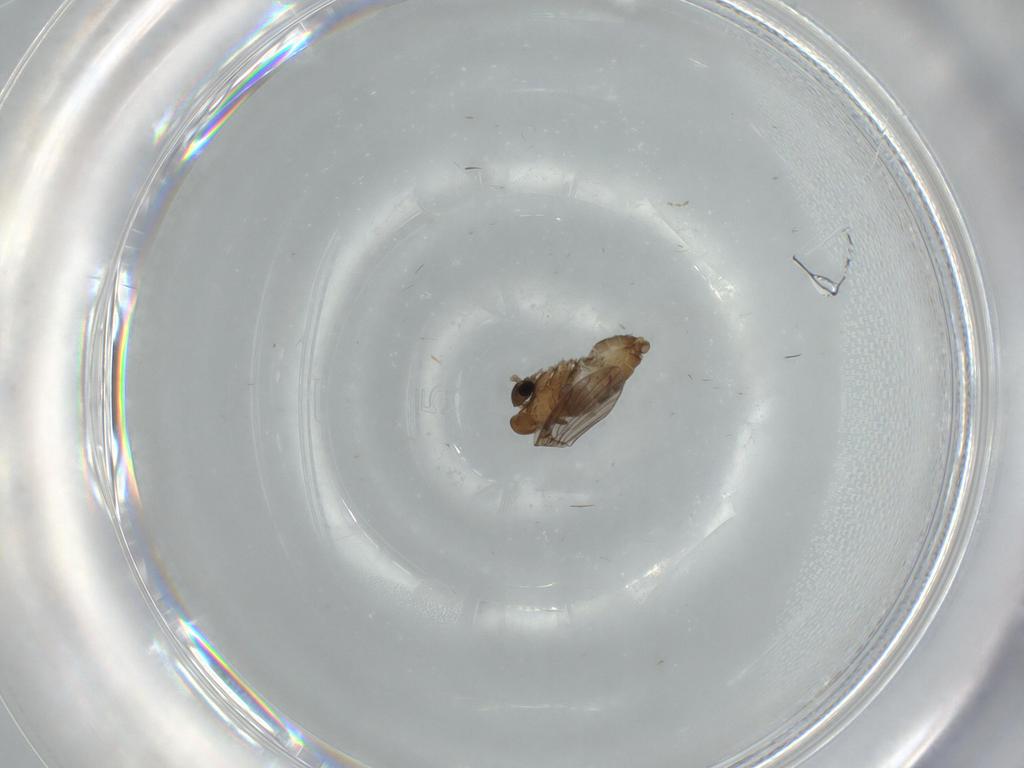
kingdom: Animalia
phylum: Arthropoda
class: Insecta
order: Diptera
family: Psychodidae
